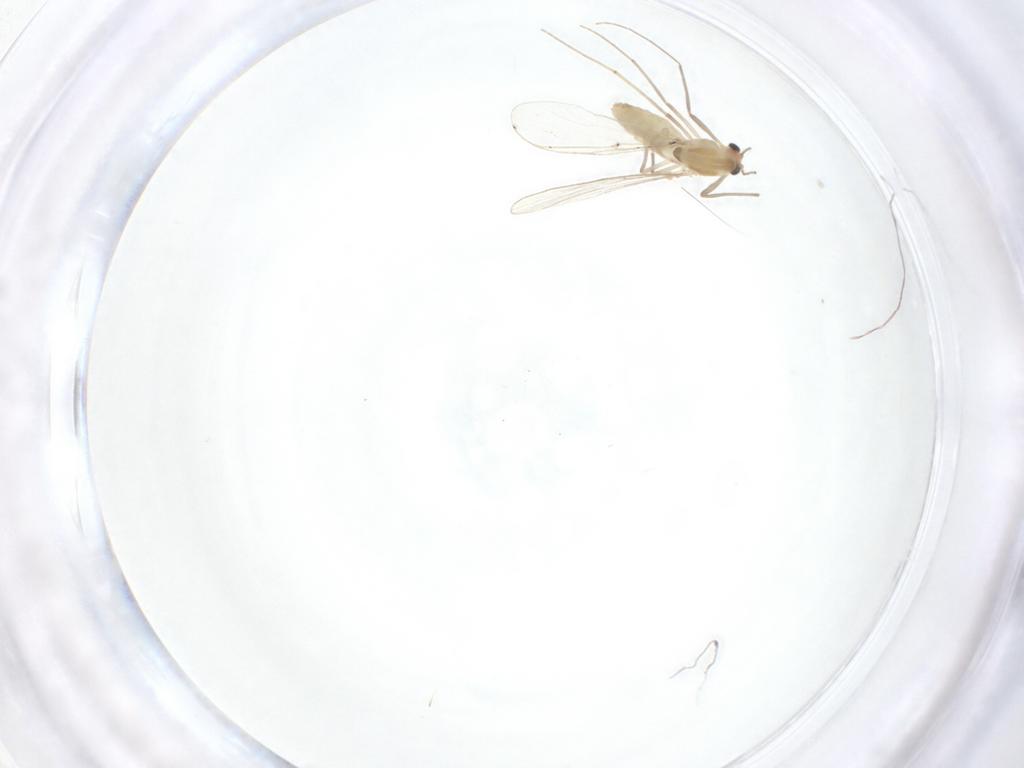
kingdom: Animalia
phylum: Arthropoda
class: Insecta
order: Diptera
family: Chironomidae
